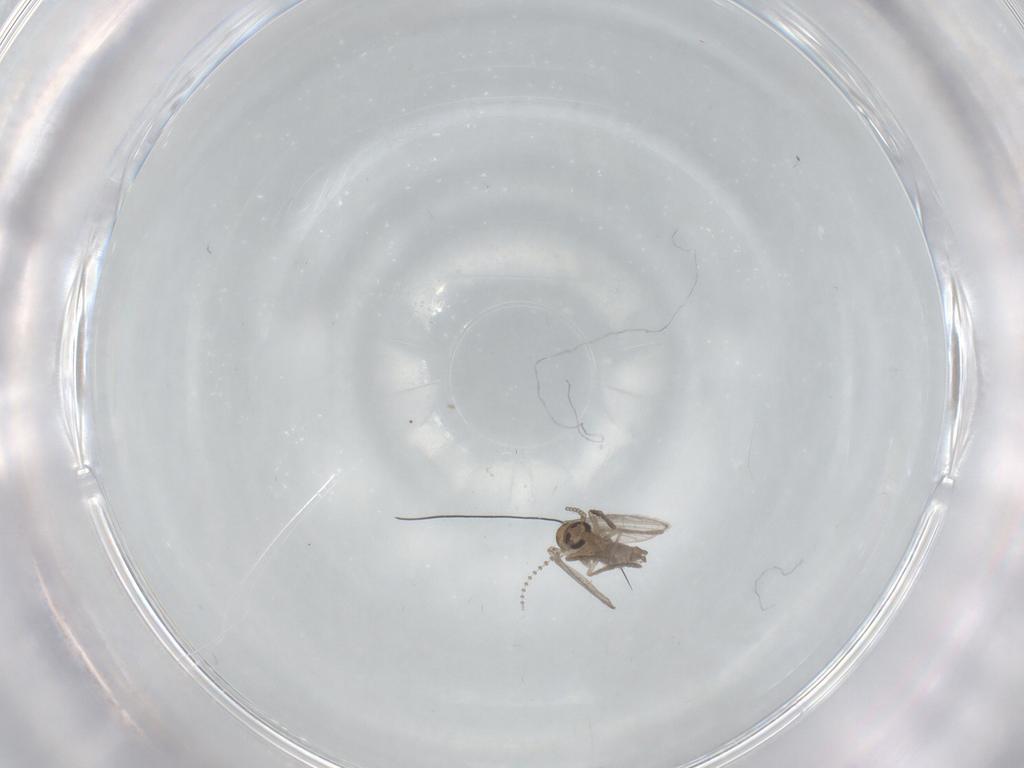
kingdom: Animalia
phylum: Arthropoda
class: Insecta
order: Diptera
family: Psychodidae
